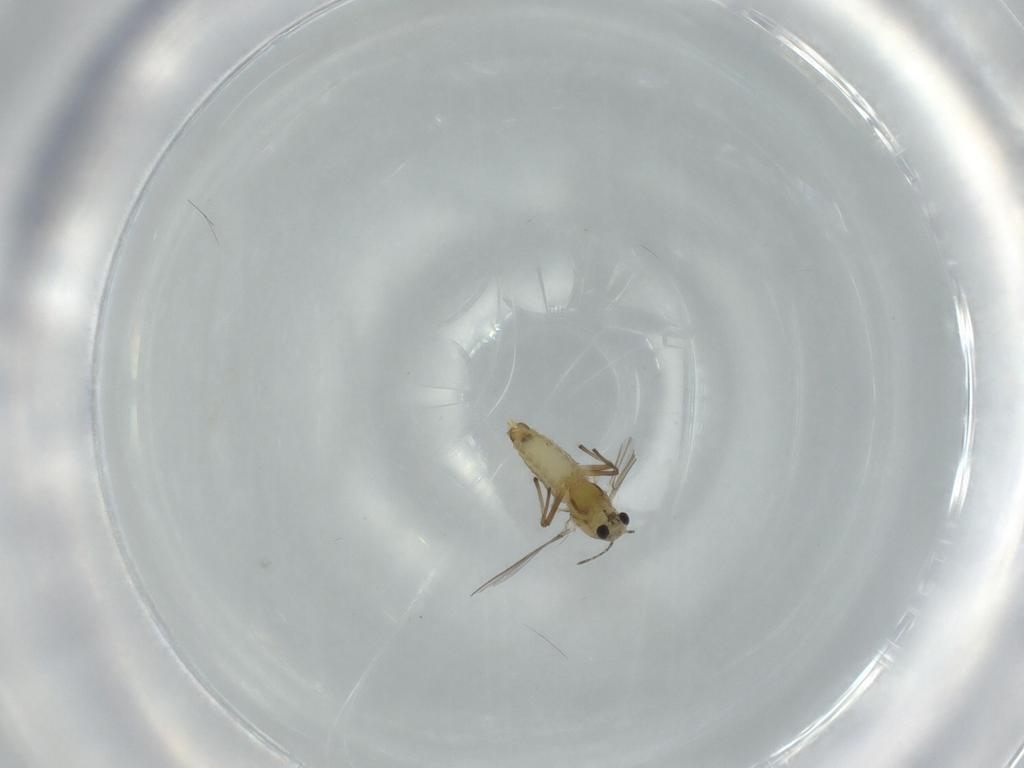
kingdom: Animalia
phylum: Arthropoda
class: Insecta
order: Diptera
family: Chironomidae
